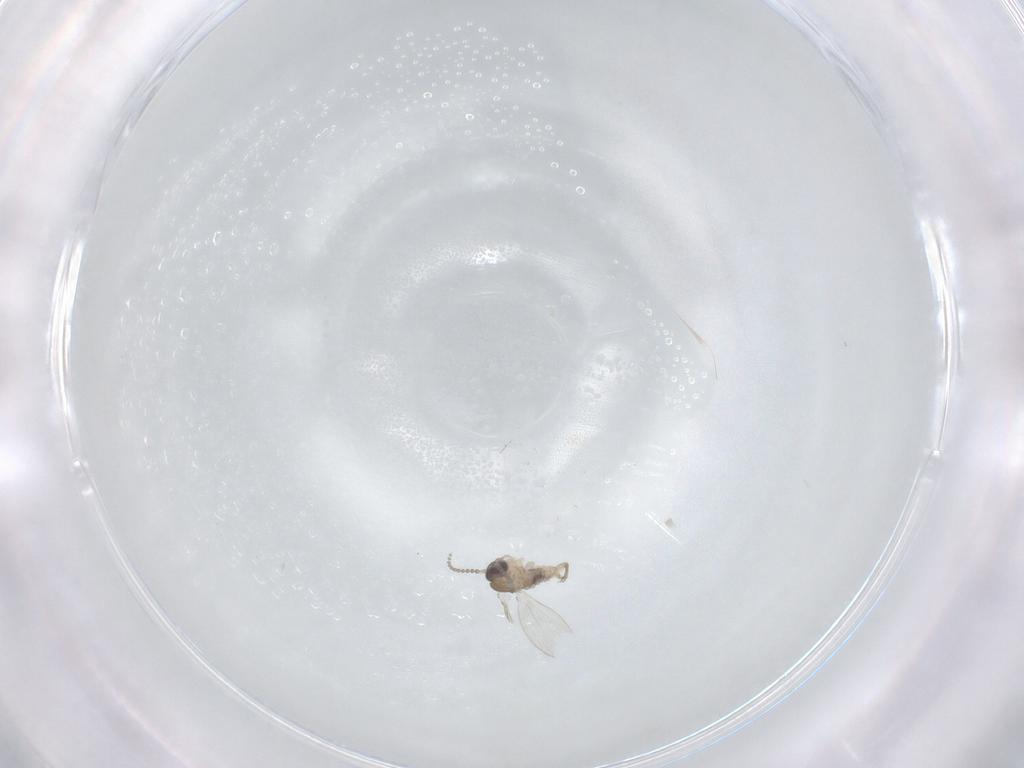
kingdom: Animalia
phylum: Arthropoda
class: Insecta
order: Diptera
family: Psychodidae
